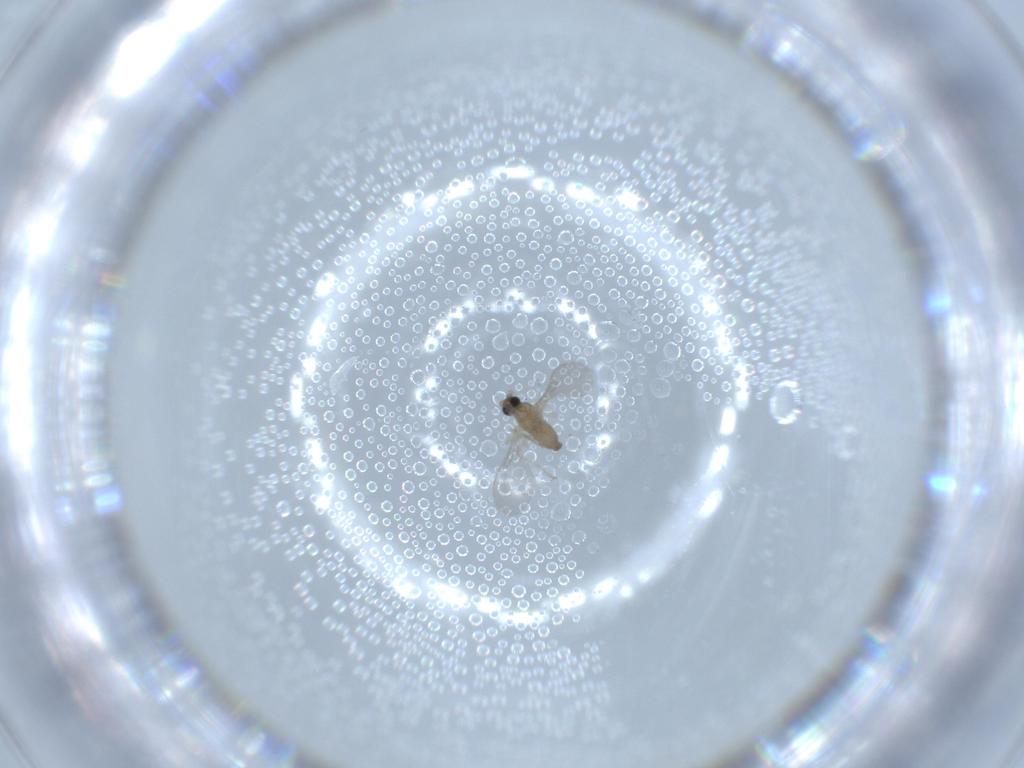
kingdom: Animalia
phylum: Arthropoda
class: Insecta
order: Diptera
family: Cecidomyiidae
